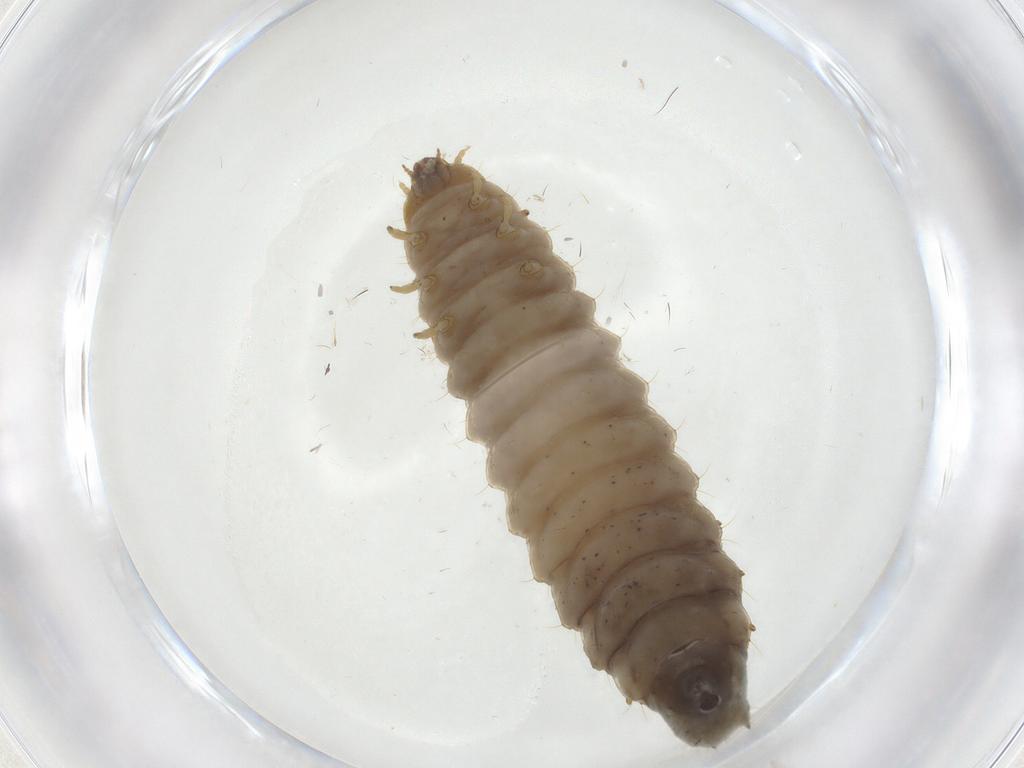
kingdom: Animalia
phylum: Arthropoda
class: Insecta
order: Coleoptera
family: Nitidulidae
